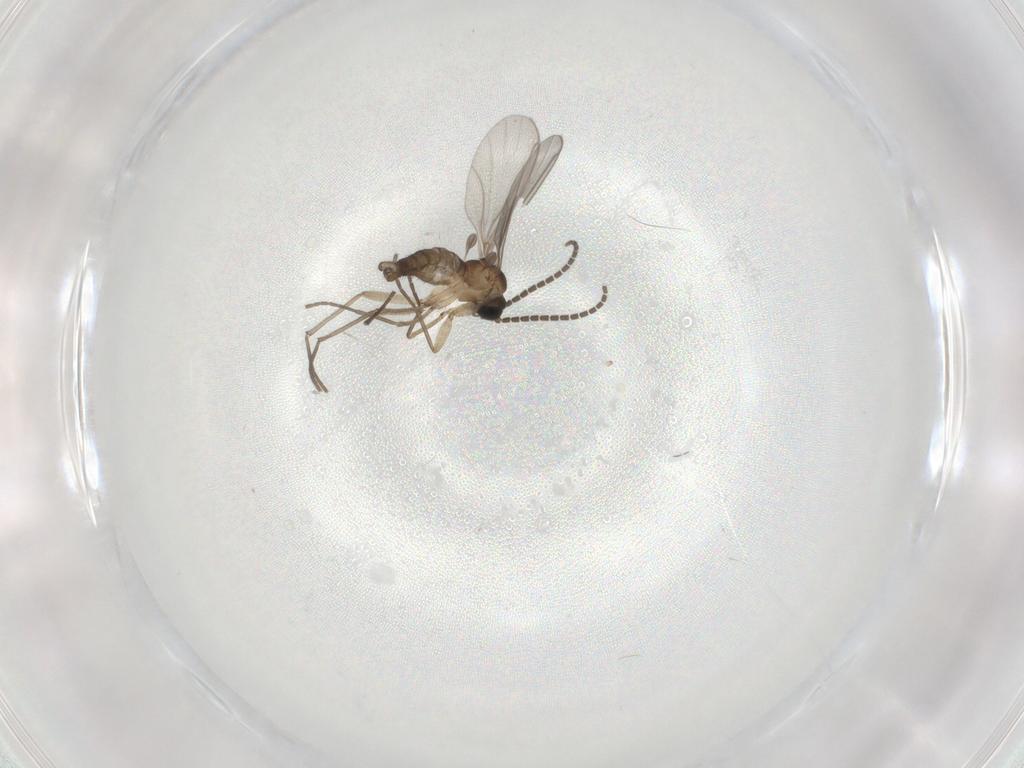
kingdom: Animalia
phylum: Arthropoda
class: Insecta
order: Diptera
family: Sciaridae
